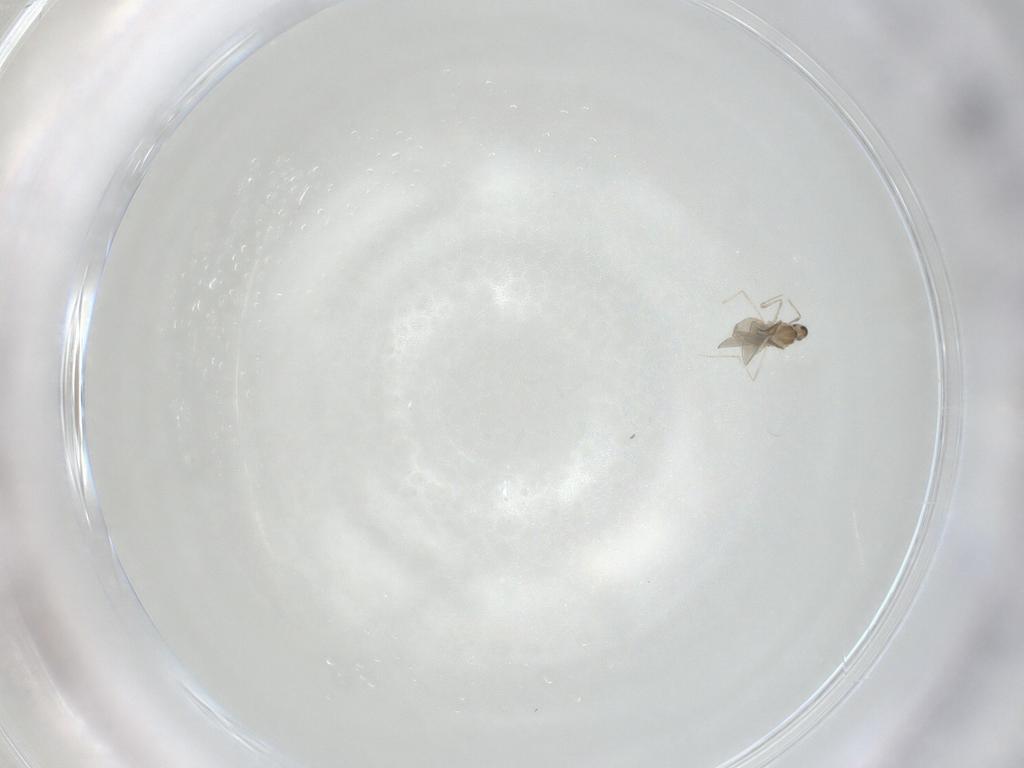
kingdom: Animalia
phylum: Arthropoda
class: Insecta
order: Diptera
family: Cecidomyiidae
